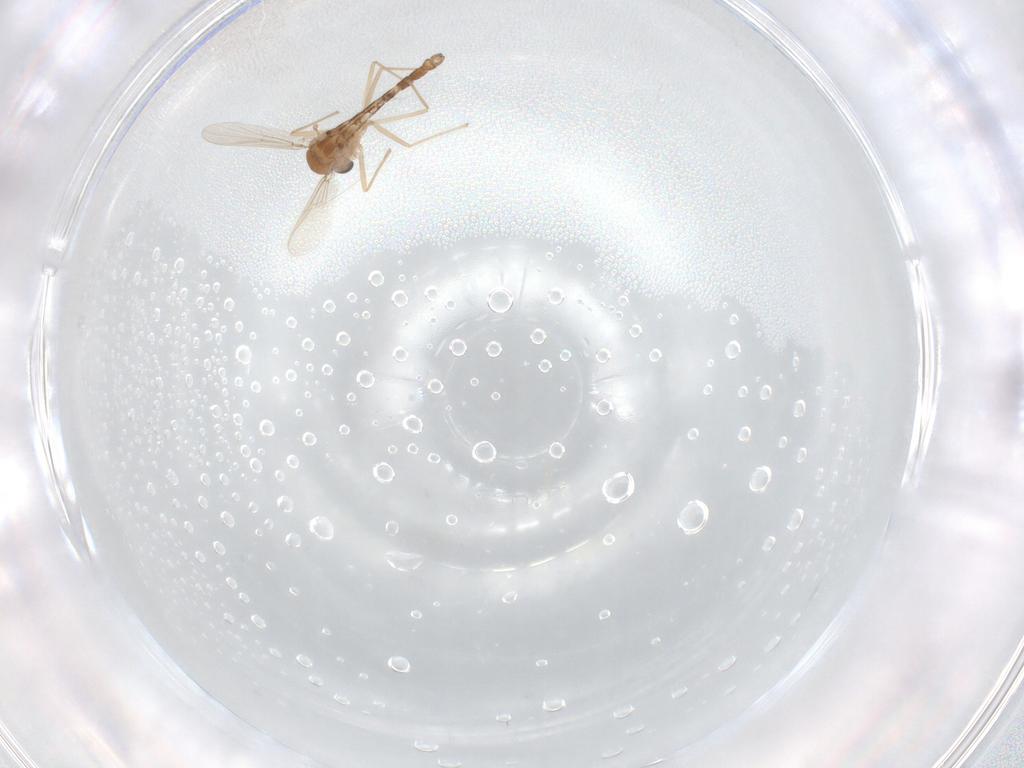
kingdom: Animalia
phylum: Arthropoda
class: Insecta
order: Diptera
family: Chironomidae
